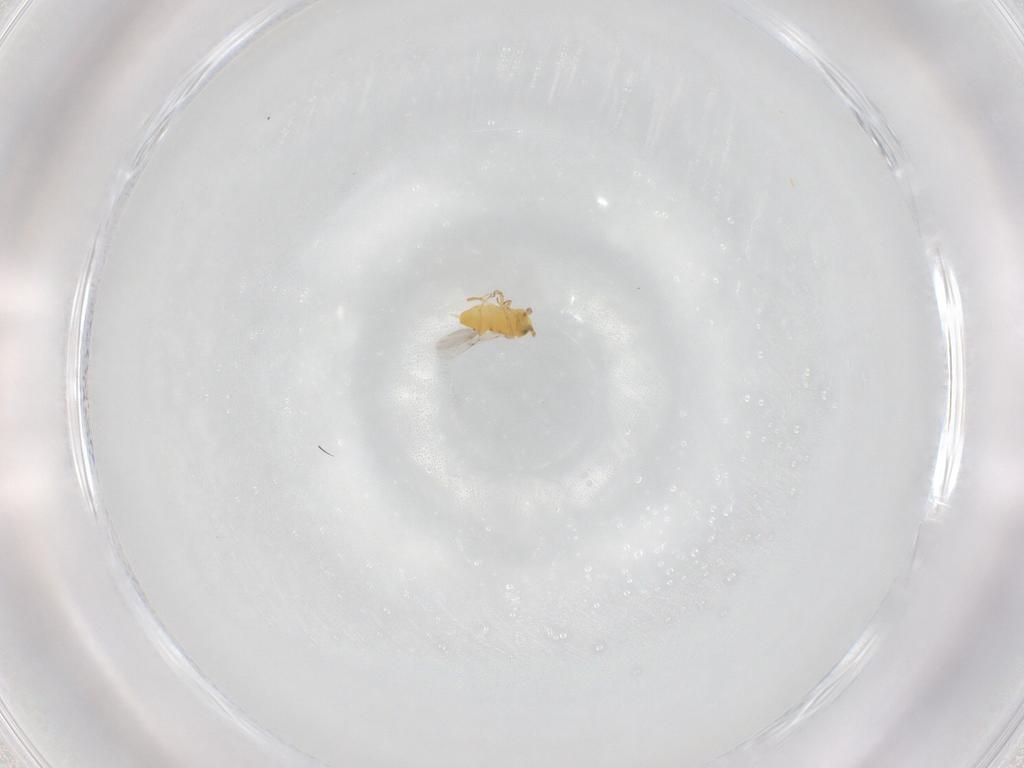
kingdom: Animalia
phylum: Arthropoda
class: Insecta
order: Hymenoptera
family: Encyrtidae
